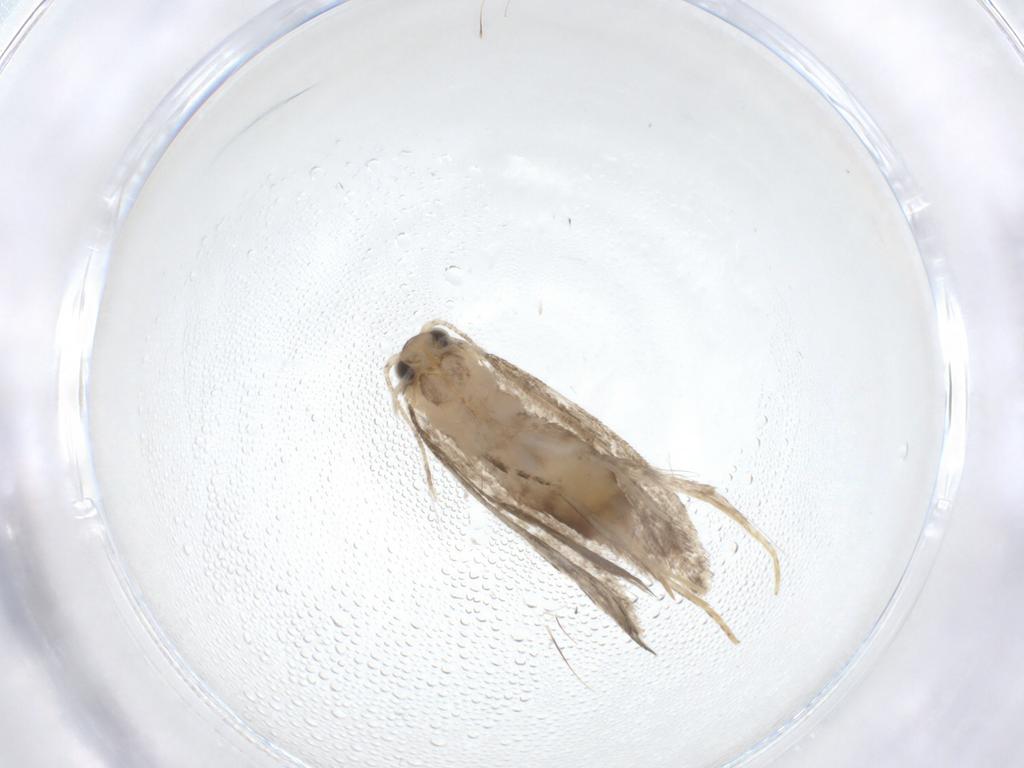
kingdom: Animalia
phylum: Arthropoda
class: Insecta
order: Lepidoptera
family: Tineidae
